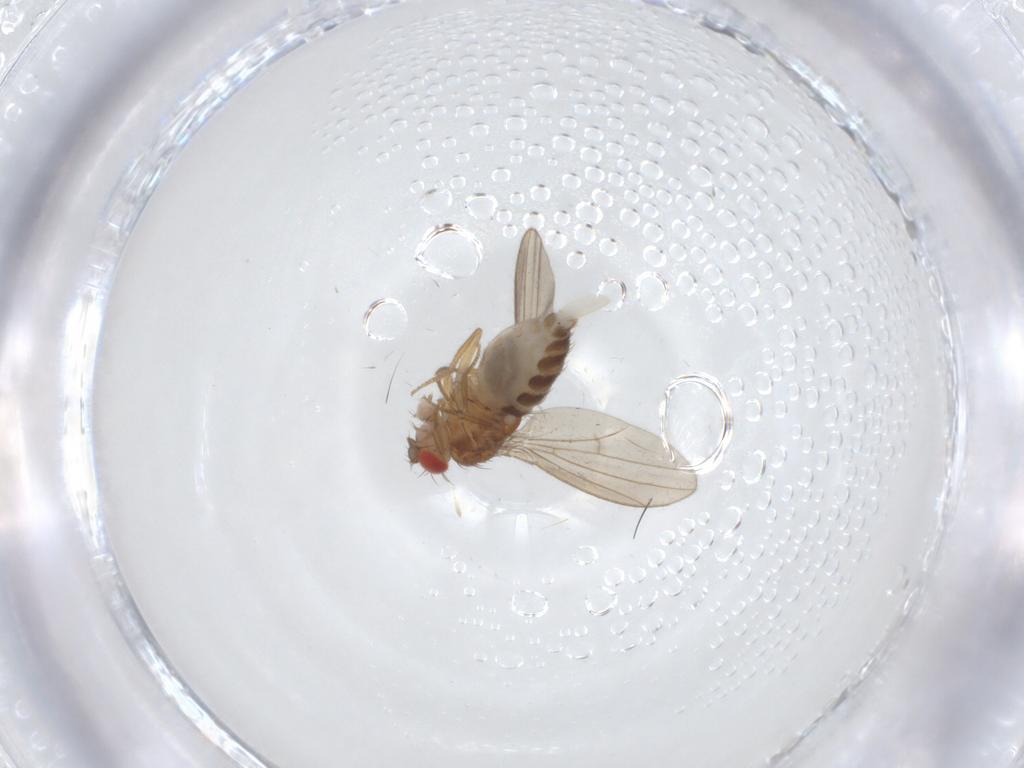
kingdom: Animalia
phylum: Arthropoda
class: Insecta
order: Diptera
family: Drosophilidae
